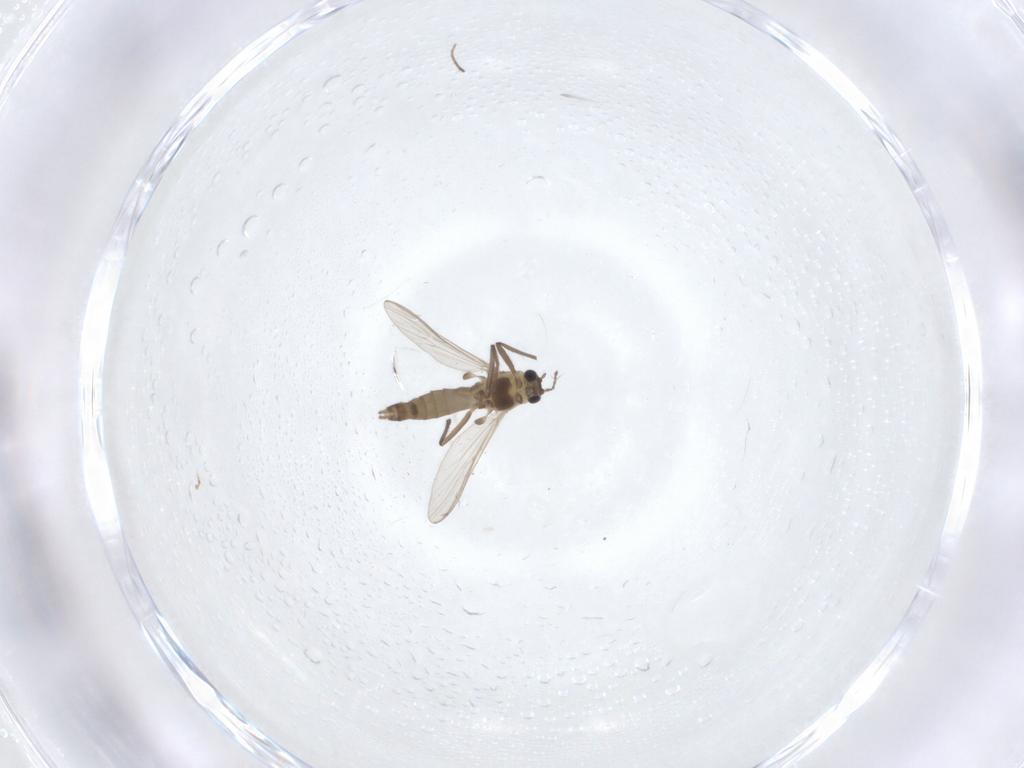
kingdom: Animalia
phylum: Arthropoda
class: Insecta
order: Diptera
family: Chironomidae
